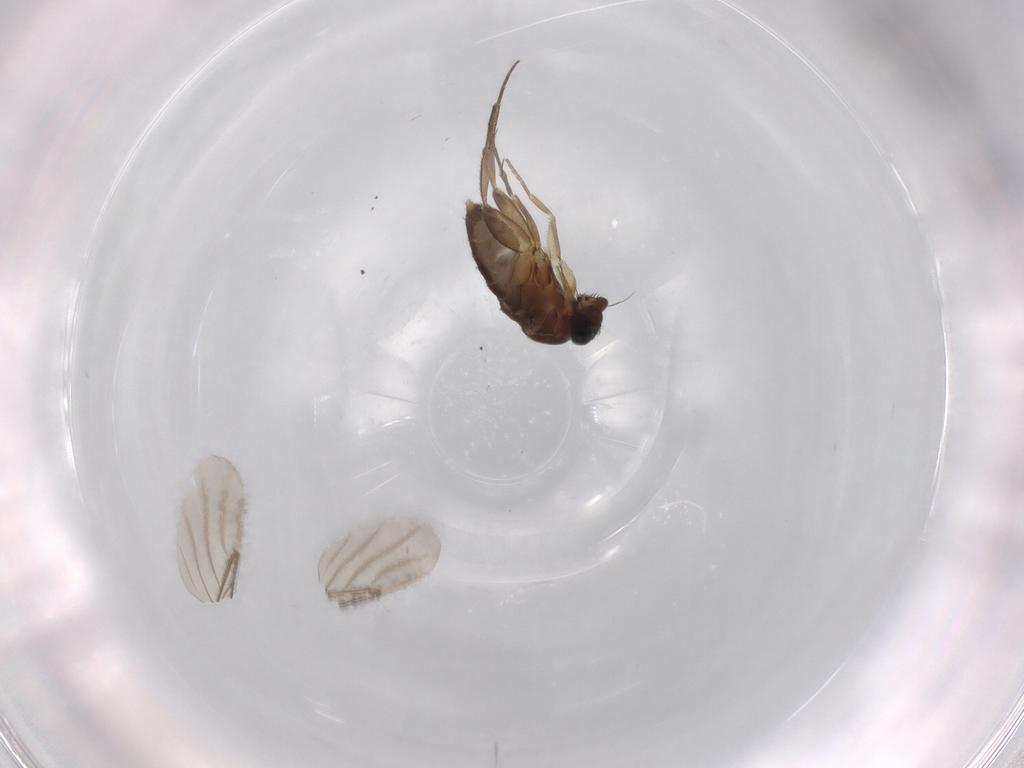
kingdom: Animalia
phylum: Arthropoda
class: Insecta
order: Diptera
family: Phoridae
